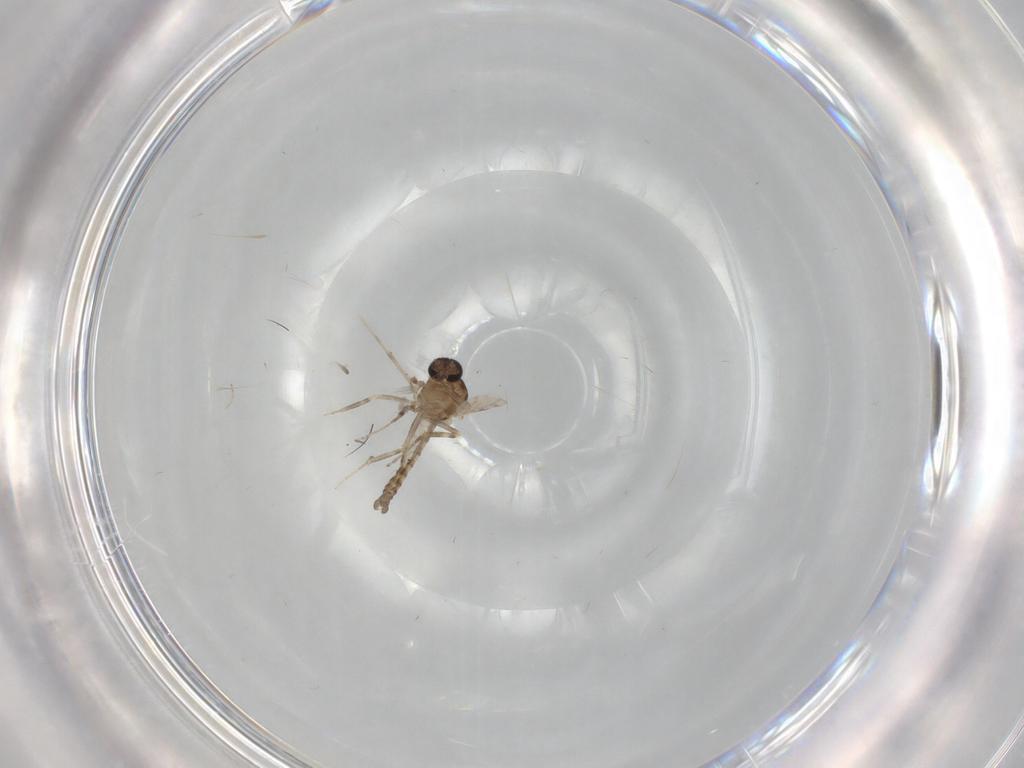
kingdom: Animalia
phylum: Arthropoda
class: Insecta
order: Diptera
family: Ceratopogonidae
